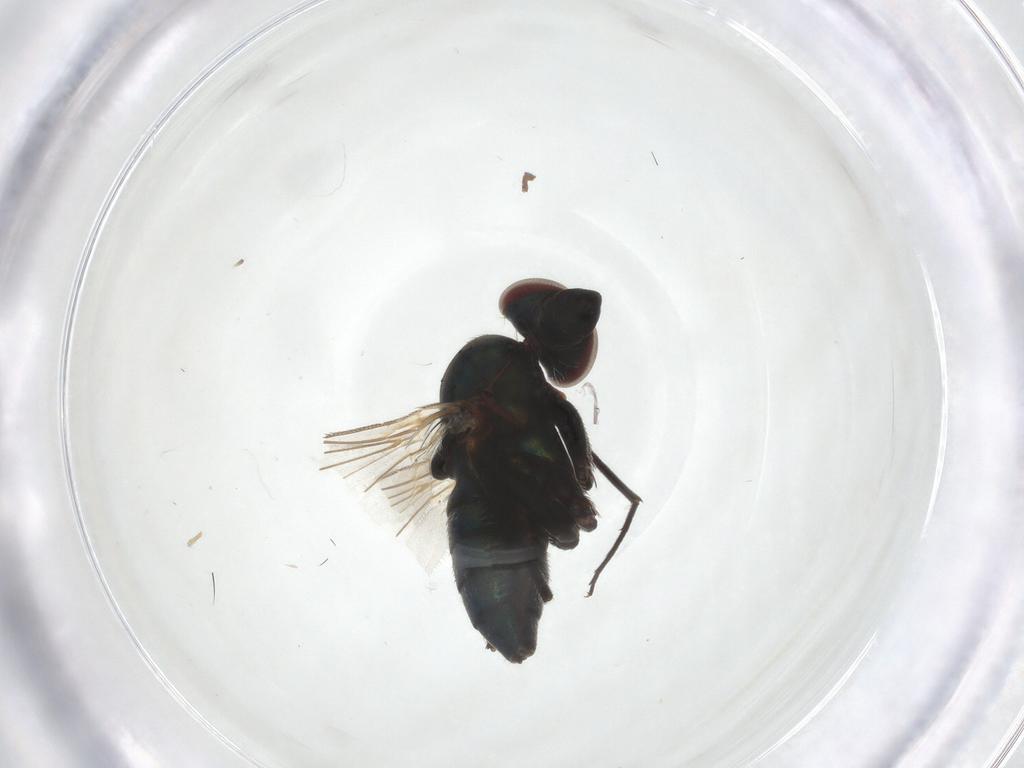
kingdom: Animalia
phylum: Arthropoda
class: Insecta
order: Diptera
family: Dolichopodidae
